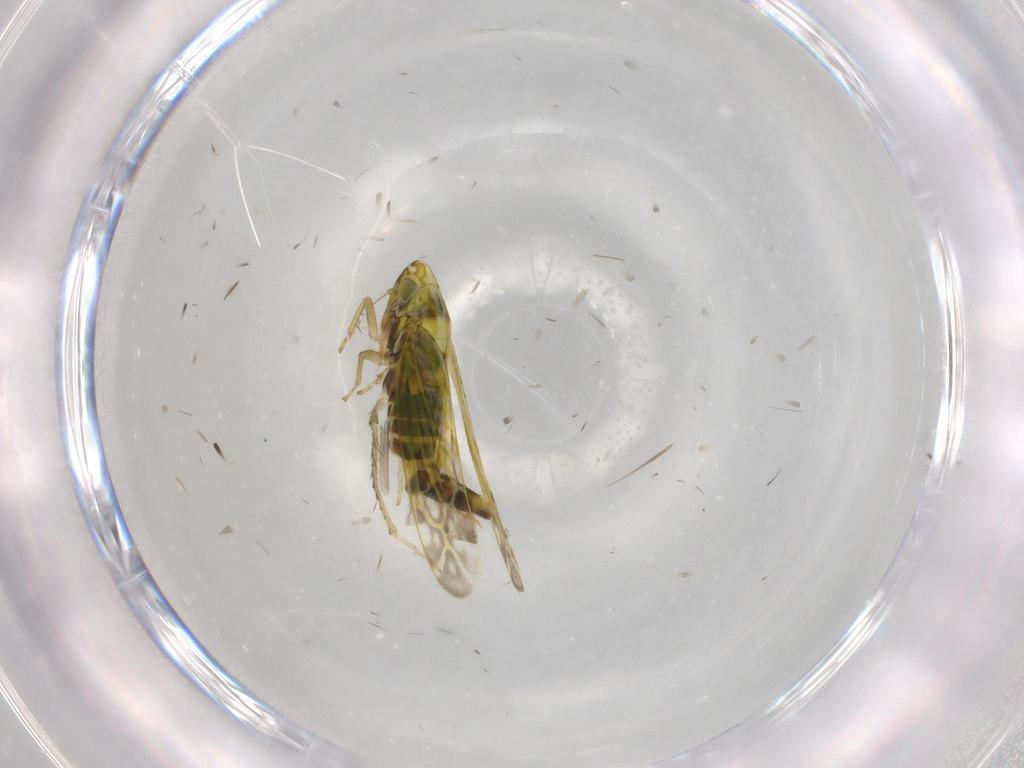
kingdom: Animalia
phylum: Arthropoda
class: Insecta
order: Hemiptera
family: Cicadellidae
